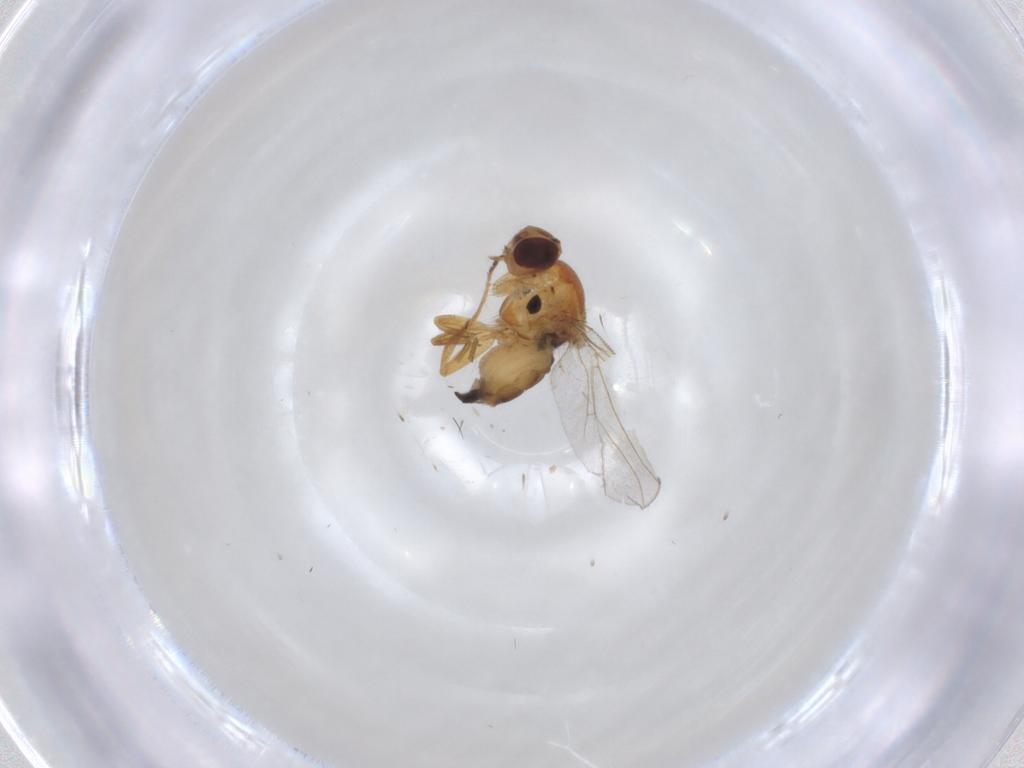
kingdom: Animalia
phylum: Arthropoda
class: Insecta
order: Diptera
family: Chloropidae
